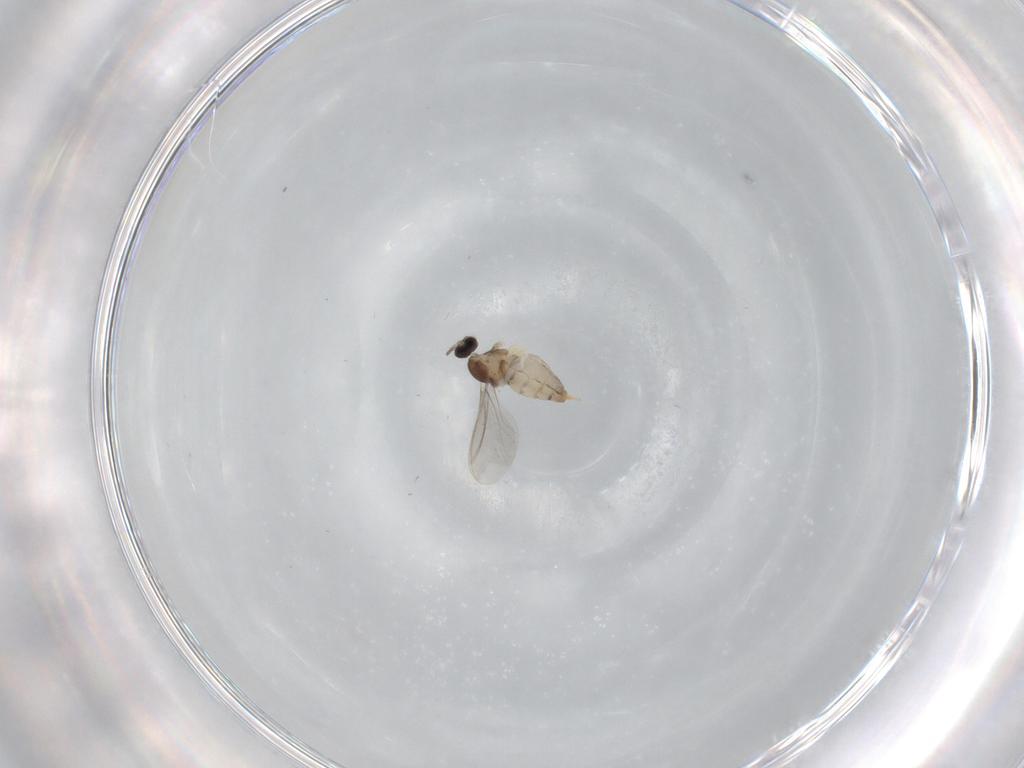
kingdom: Animalia
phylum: Arthropoda
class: Insecta
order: Diptera
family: Cecidomyiidae
